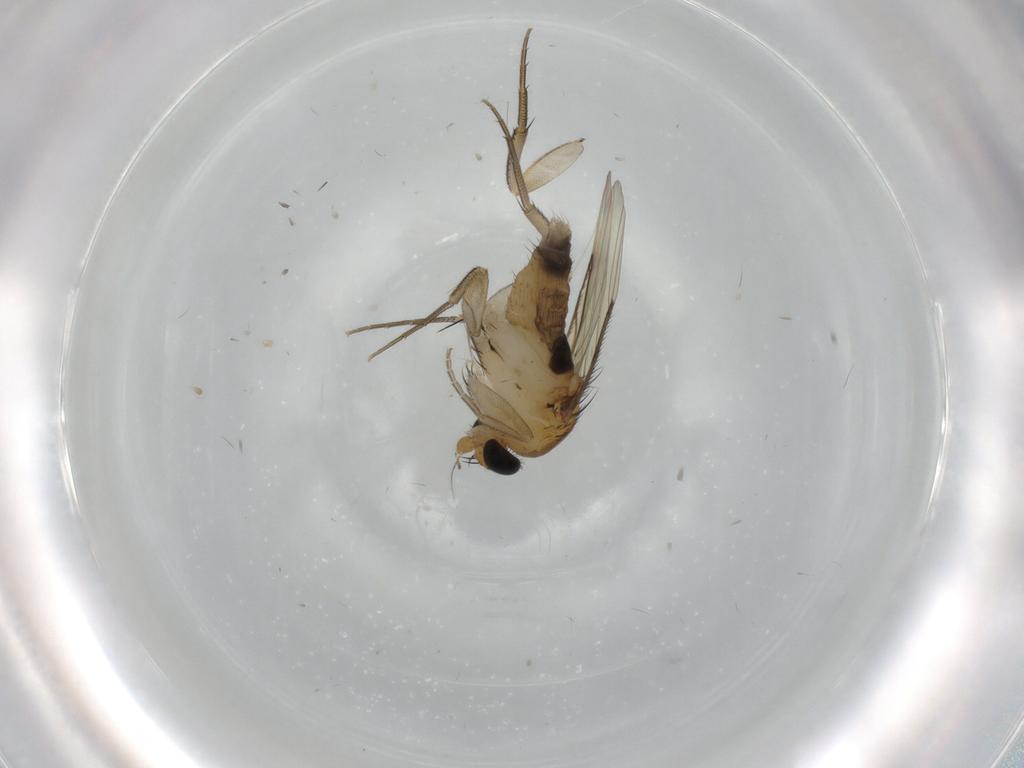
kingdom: Animalia
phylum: Arthropoda
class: Insecta
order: Diptera
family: Phoridae
